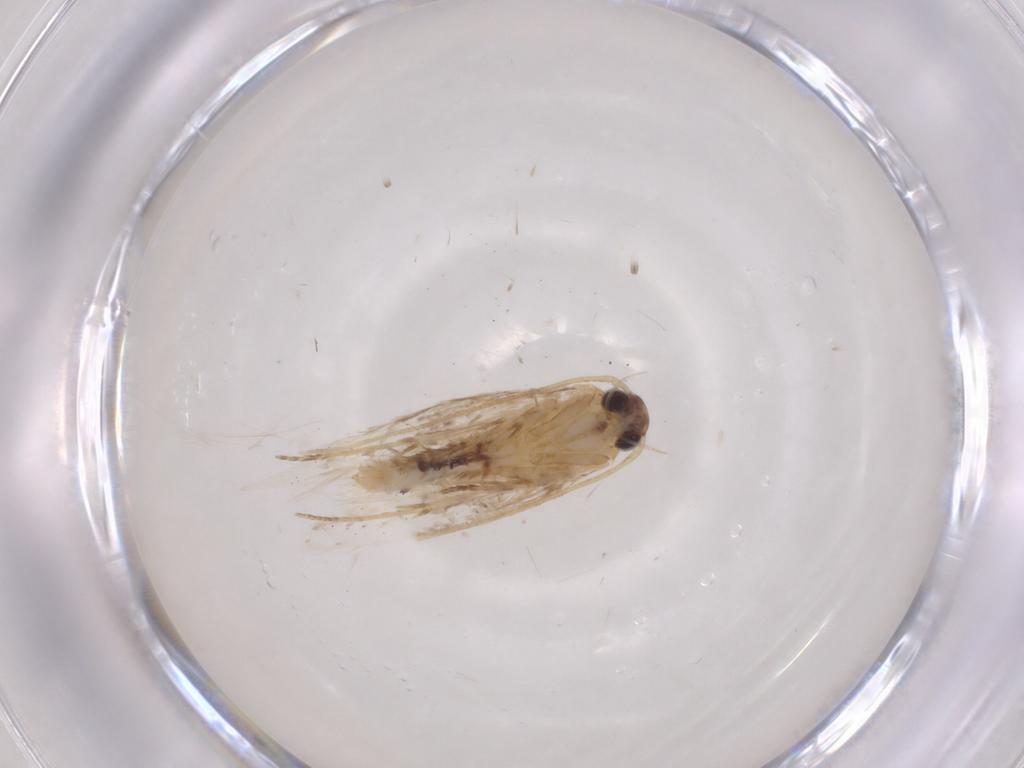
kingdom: Animalia
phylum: Arthropoda
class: Insecta
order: Lepidoptera
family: Gelechiidae
